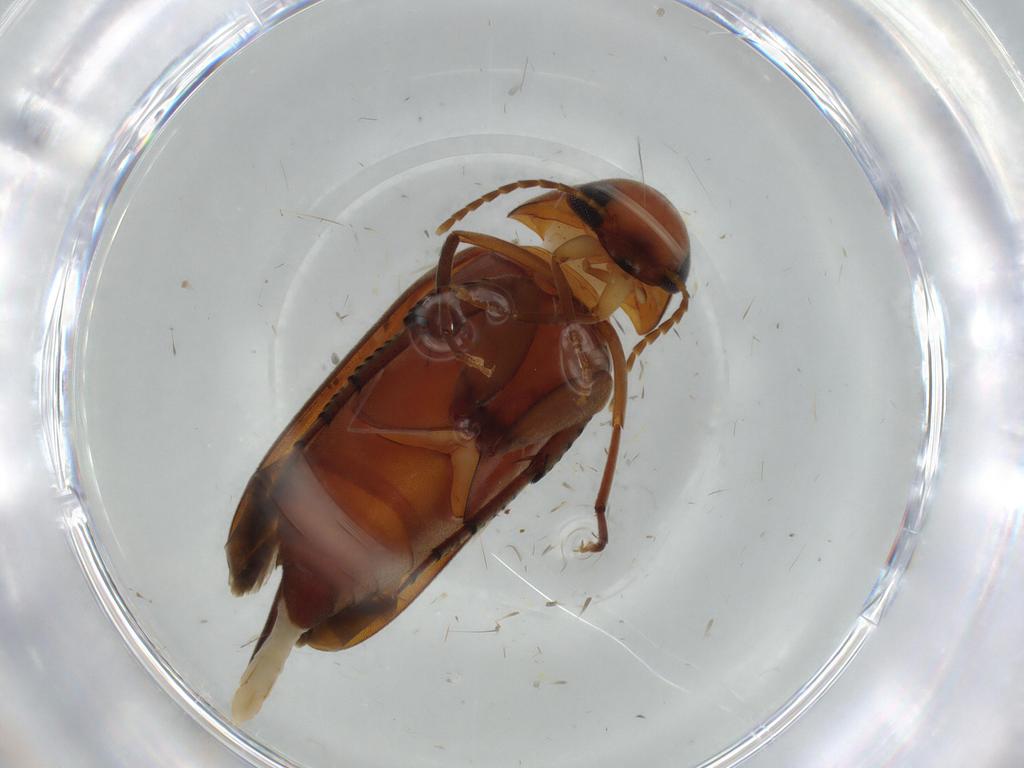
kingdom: Animalia
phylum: Arthropoda
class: Insecta
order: Coleoptera
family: Mordellidae
